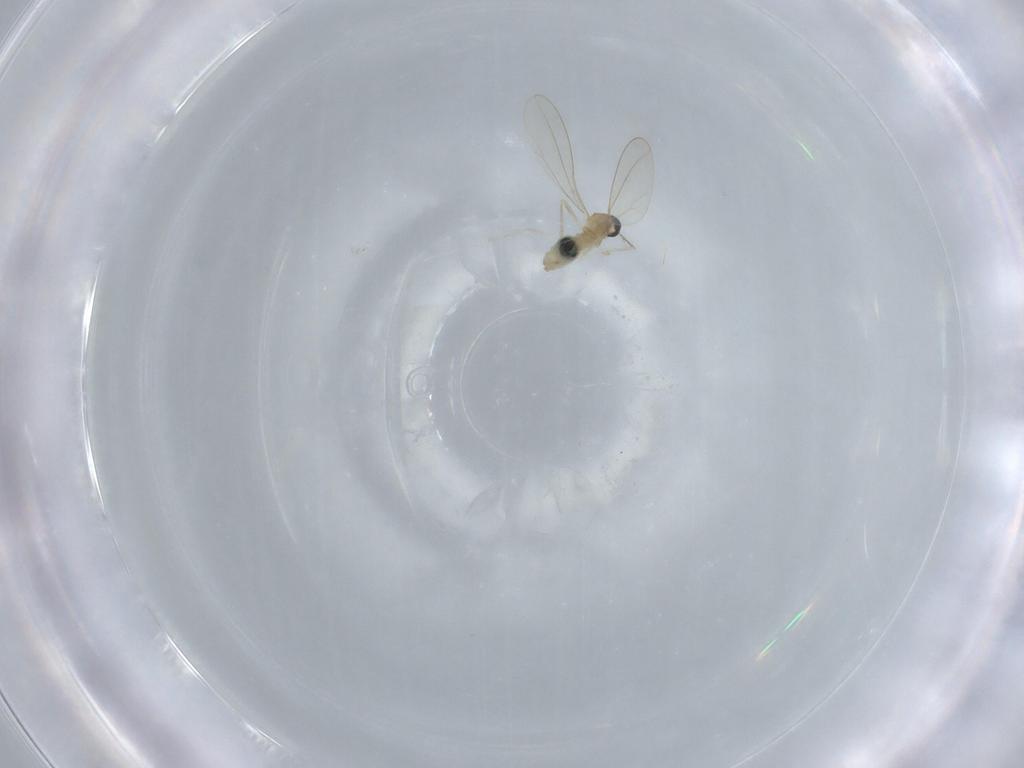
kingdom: Animalia
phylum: Arthropoda
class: Insecta
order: Diptera
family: Cecidomyiidae
